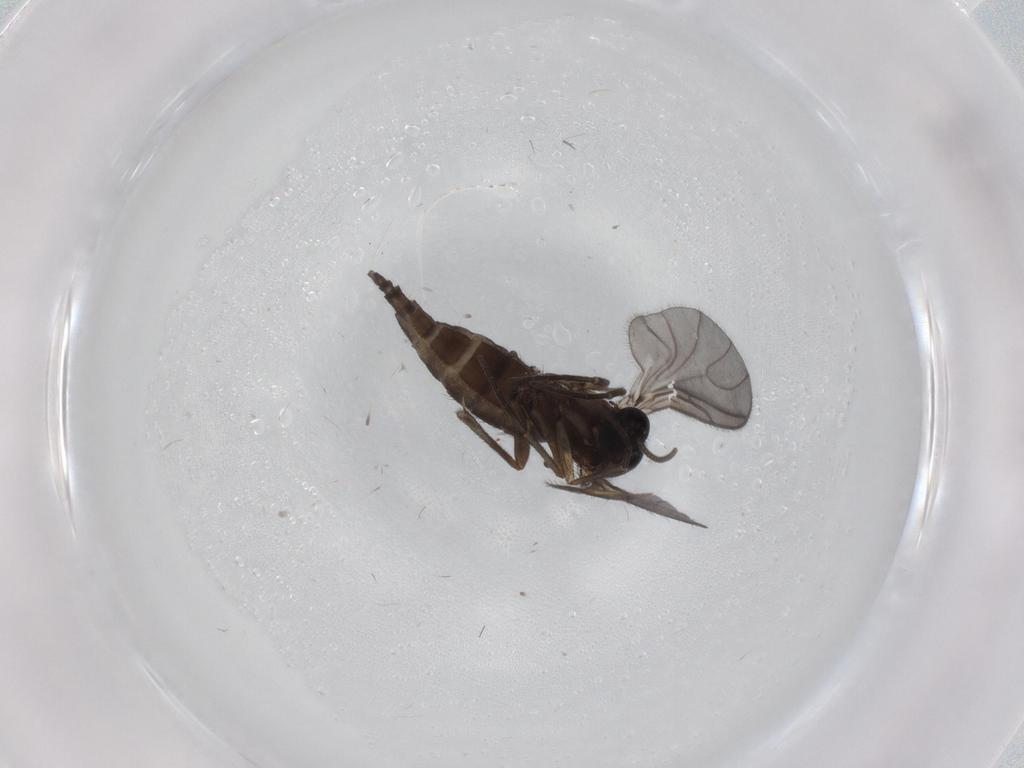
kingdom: Animalia
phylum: Arthropoda
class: Insecta
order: Diptera
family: Sciaridae
